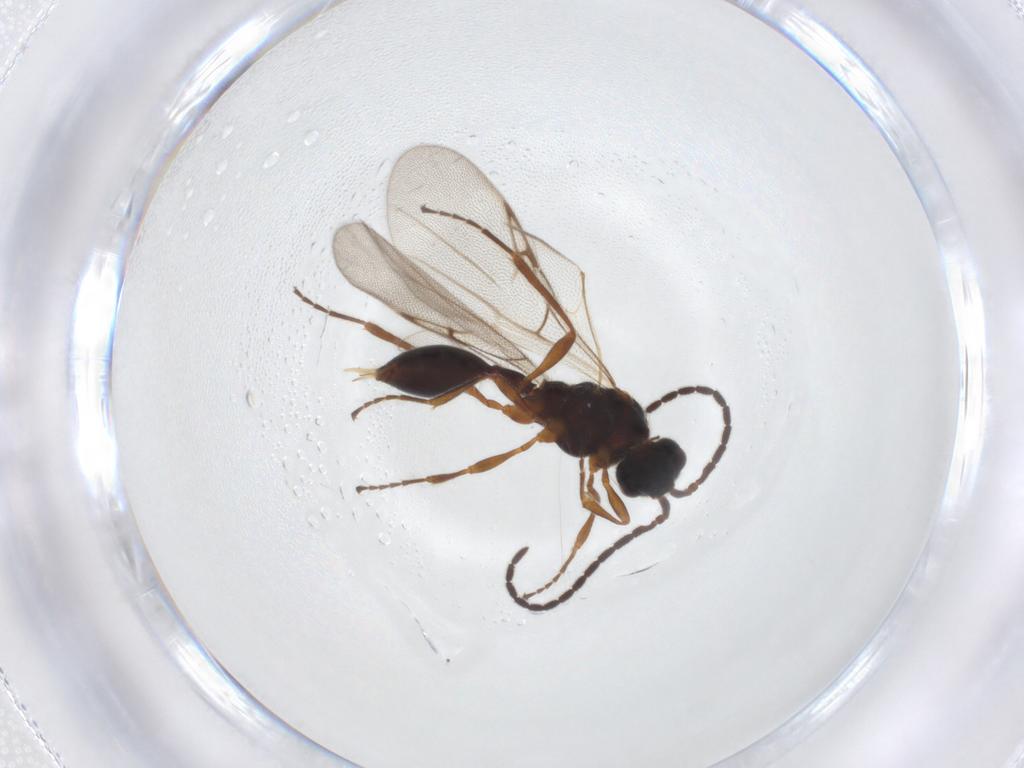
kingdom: Animalia
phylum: Arthropoda
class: Insecta
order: Hymenoptera
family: Diapriidae
